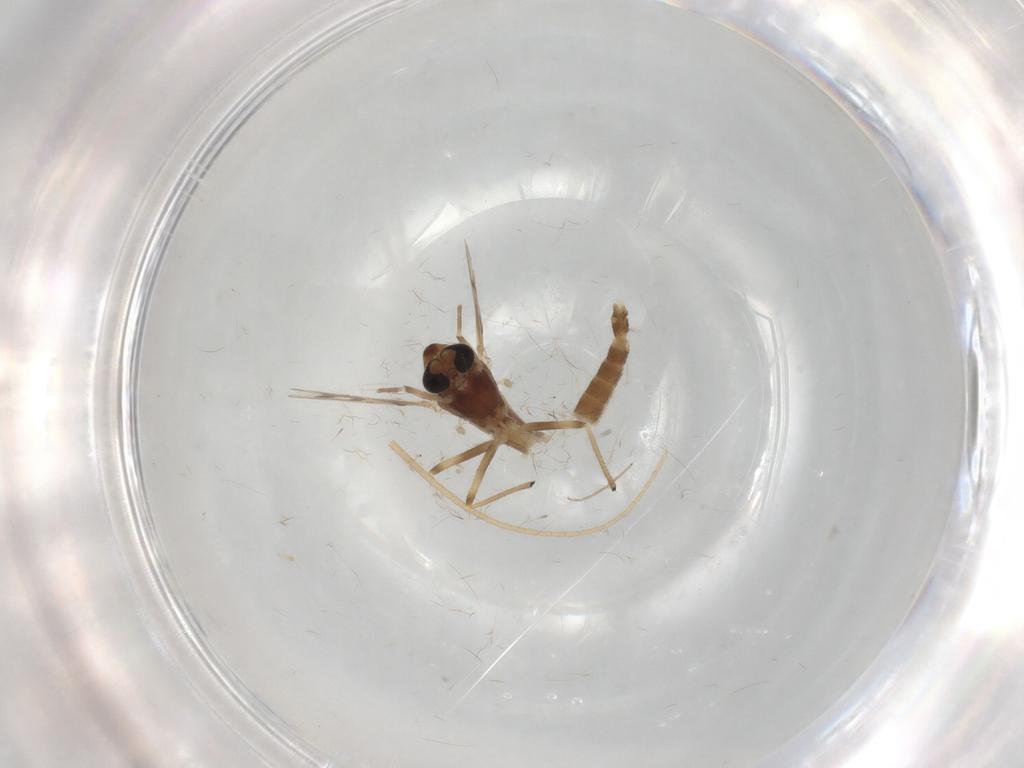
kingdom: Animalia
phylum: Arthropoda
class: Insecta
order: Diptera
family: Chironomidae
